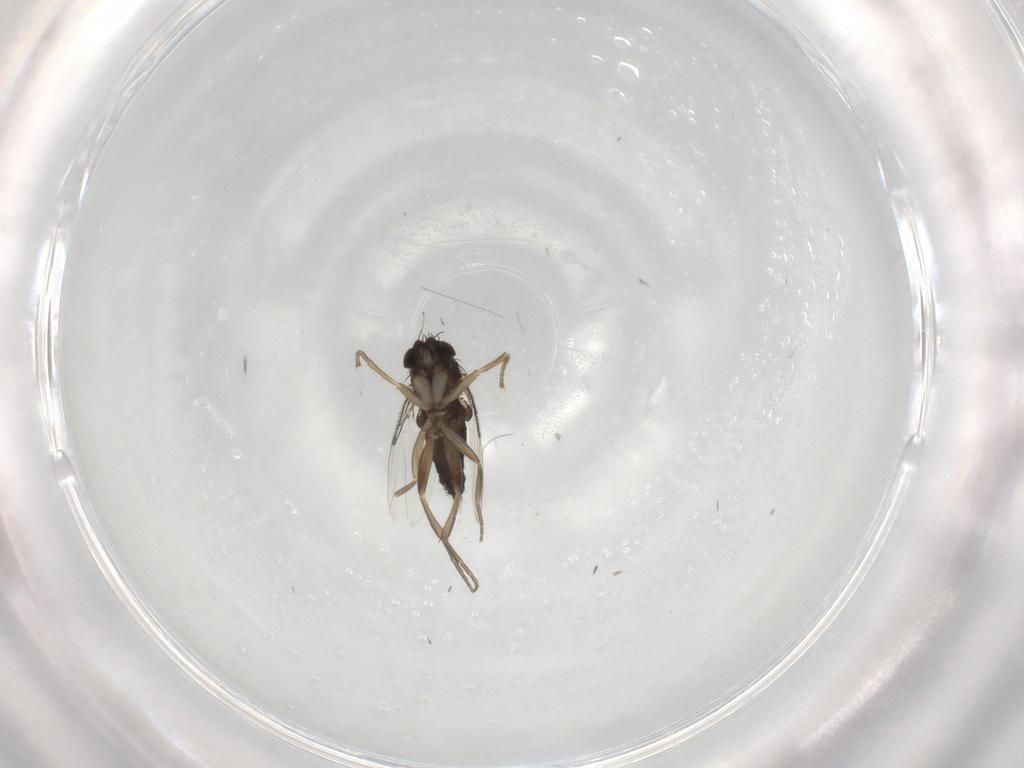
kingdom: Animalia
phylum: Arthropoda
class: Insecta
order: Diptera
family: Phoridae
